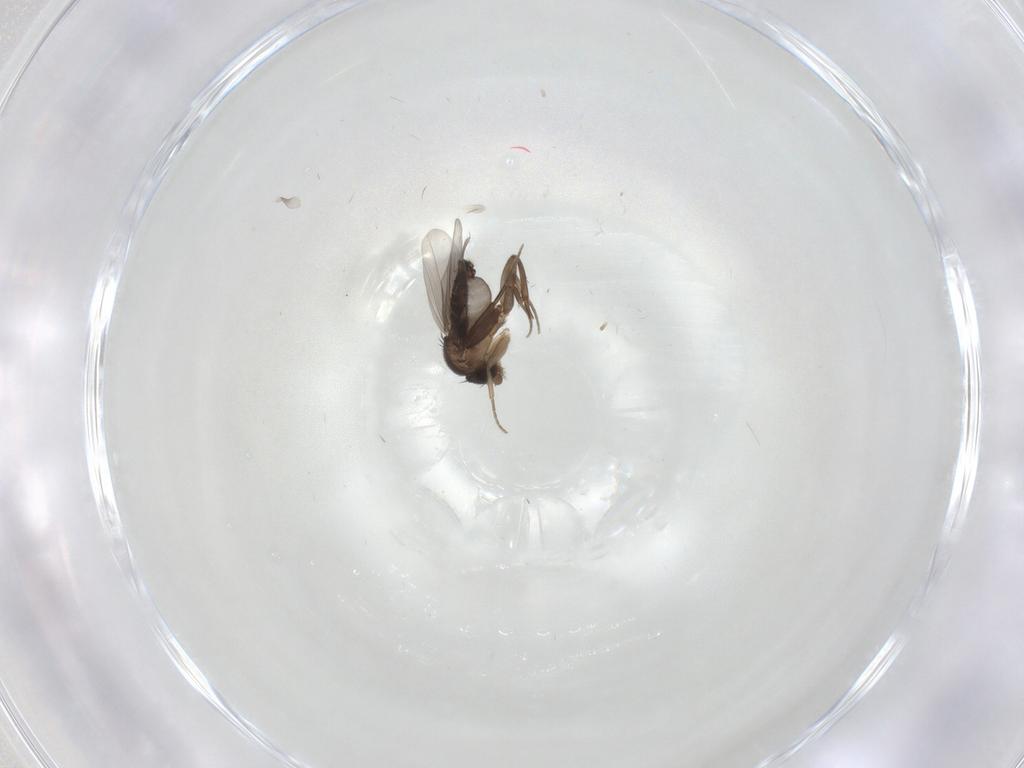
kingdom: Animalia
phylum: Arthropoda
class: Insecta
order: Diptera
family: Phoridae
